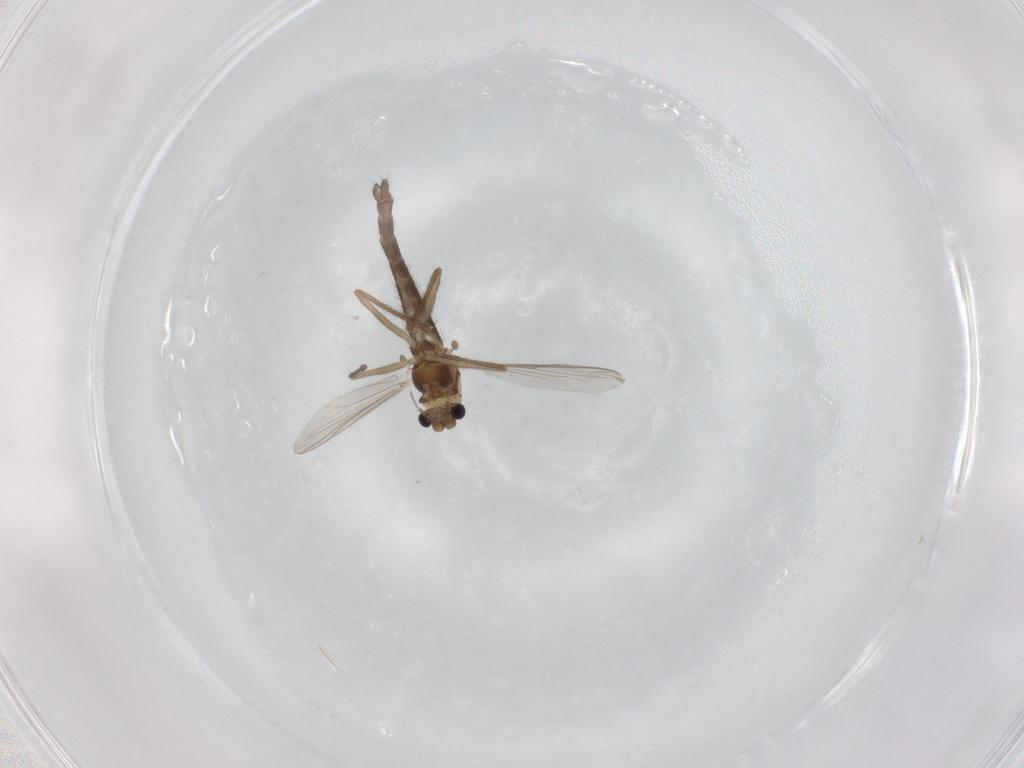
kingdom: Animalia
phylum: Arthropoda
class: Insecta
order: Diptera
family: Chironomidae
